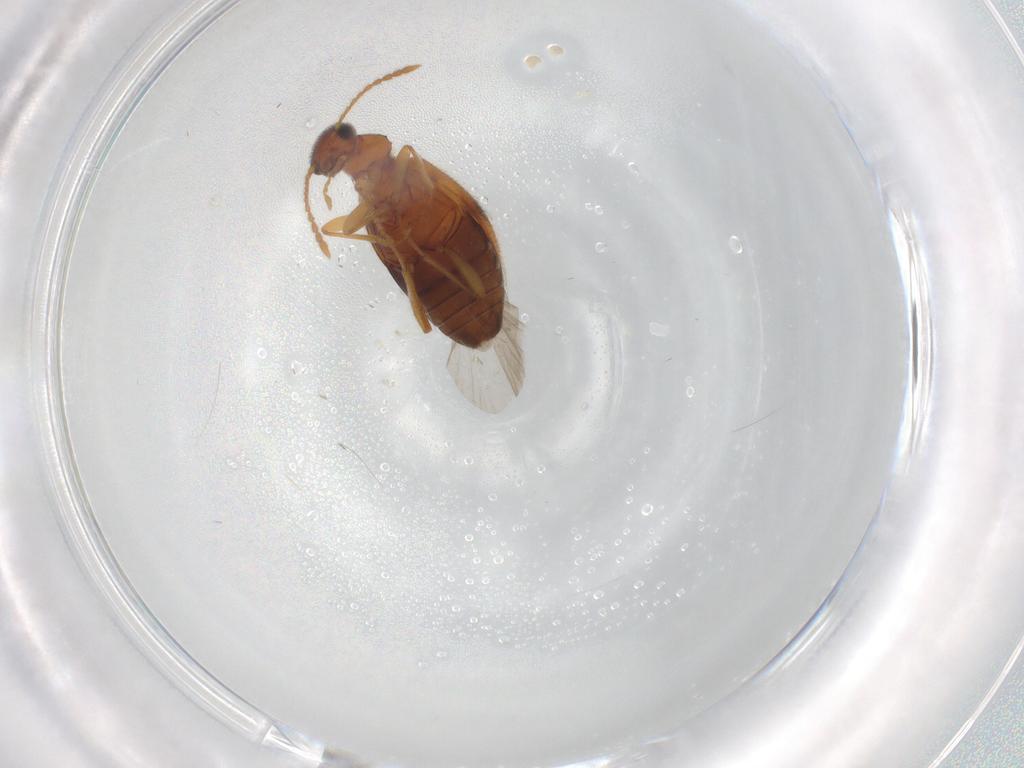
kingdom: Animalia
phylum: Arthropoda
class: Insecta
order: Coleoptera
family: Anthicidae
